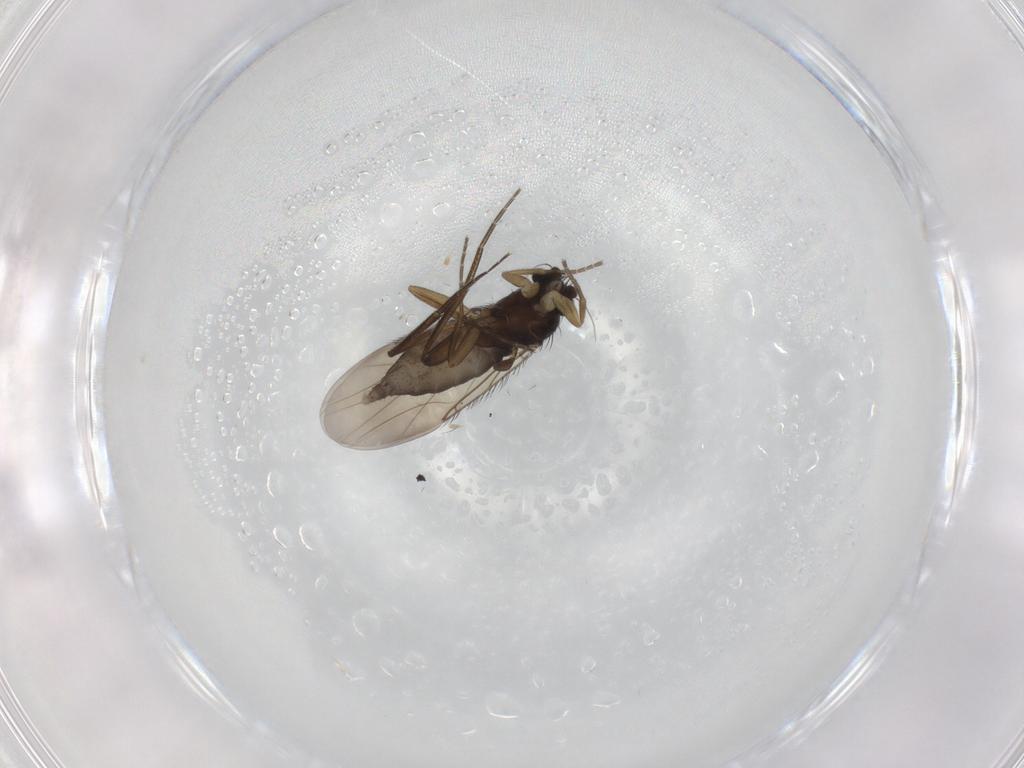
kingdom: Animalia
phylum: Arthropoda
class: Insecta
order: Diptera
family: Phoridae
